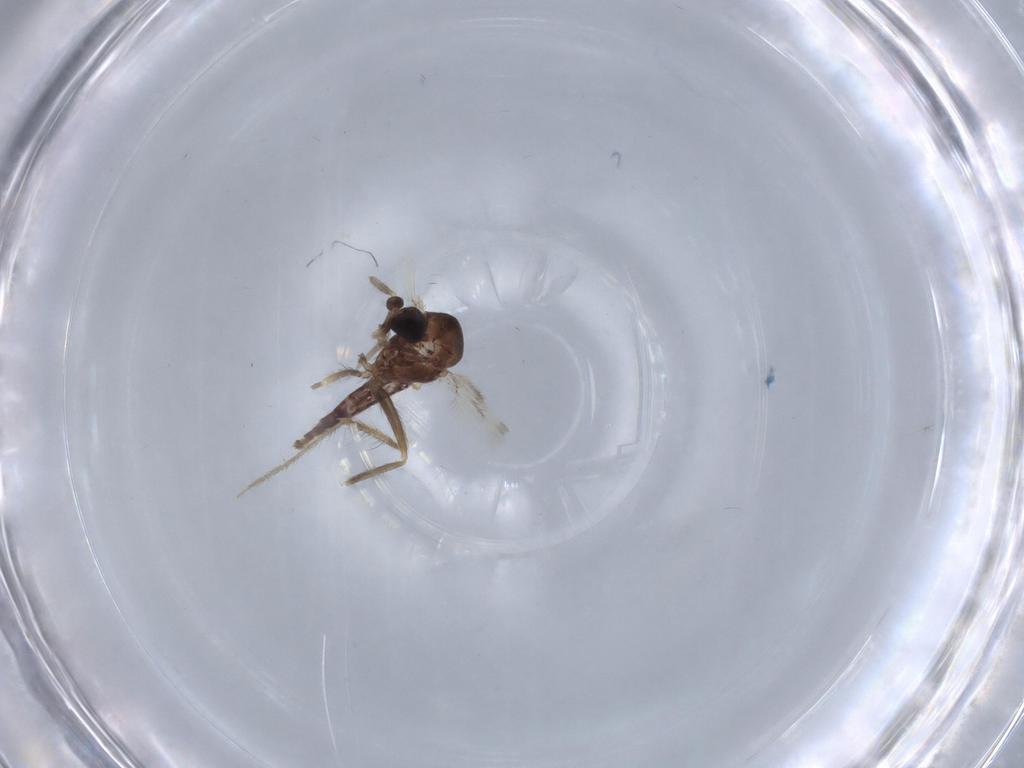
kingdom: Animalia
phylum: Arthropoda
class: Insecta
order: Diptera
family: Corethrellidae
